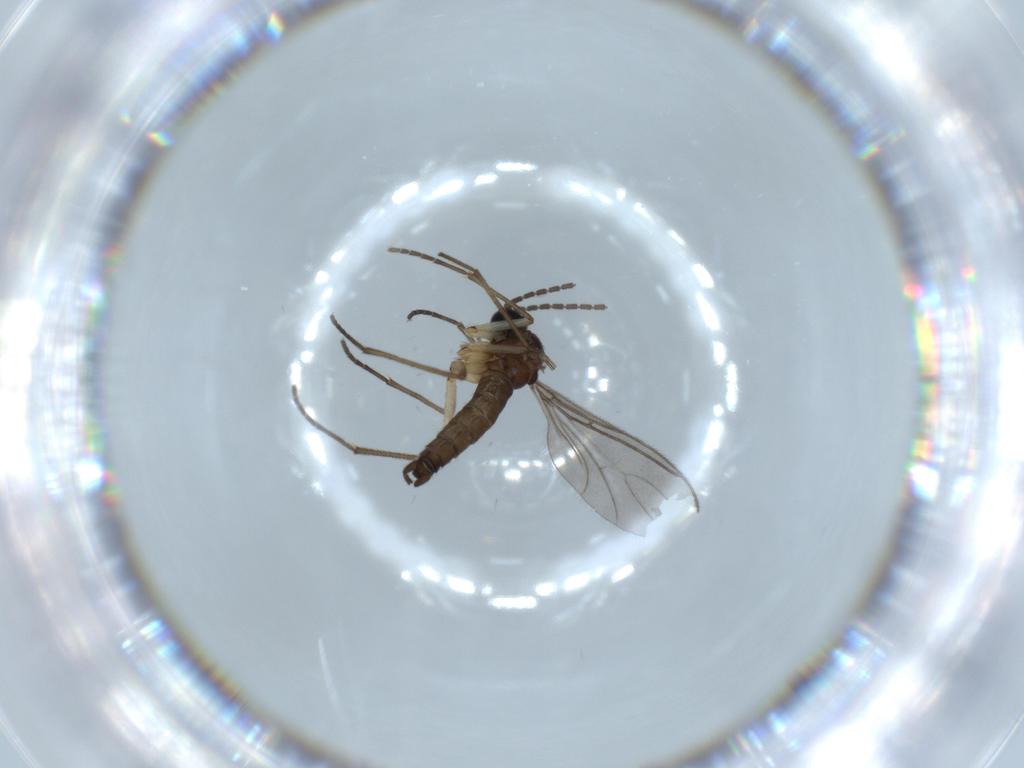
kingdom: Animalia
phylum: Arthropoda
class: Insecta
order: Diptera
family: Sciaridae
